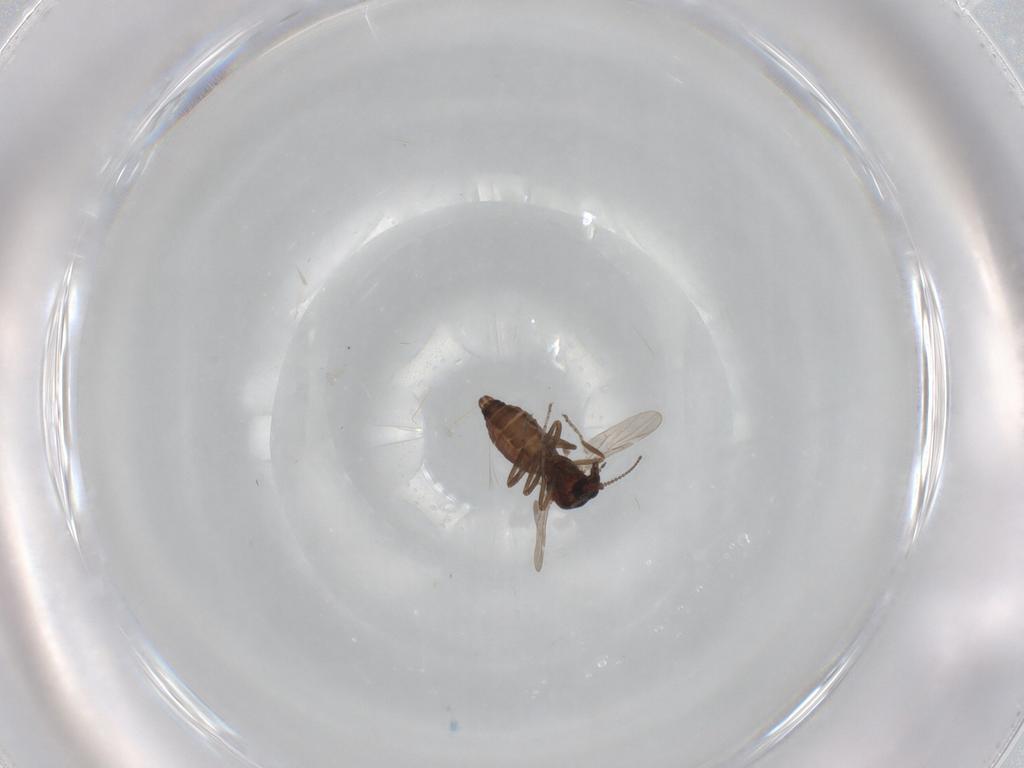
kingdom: Animalia
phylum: Arthropoda
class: Insecta
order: Diptera
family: Ceratopogonidae
